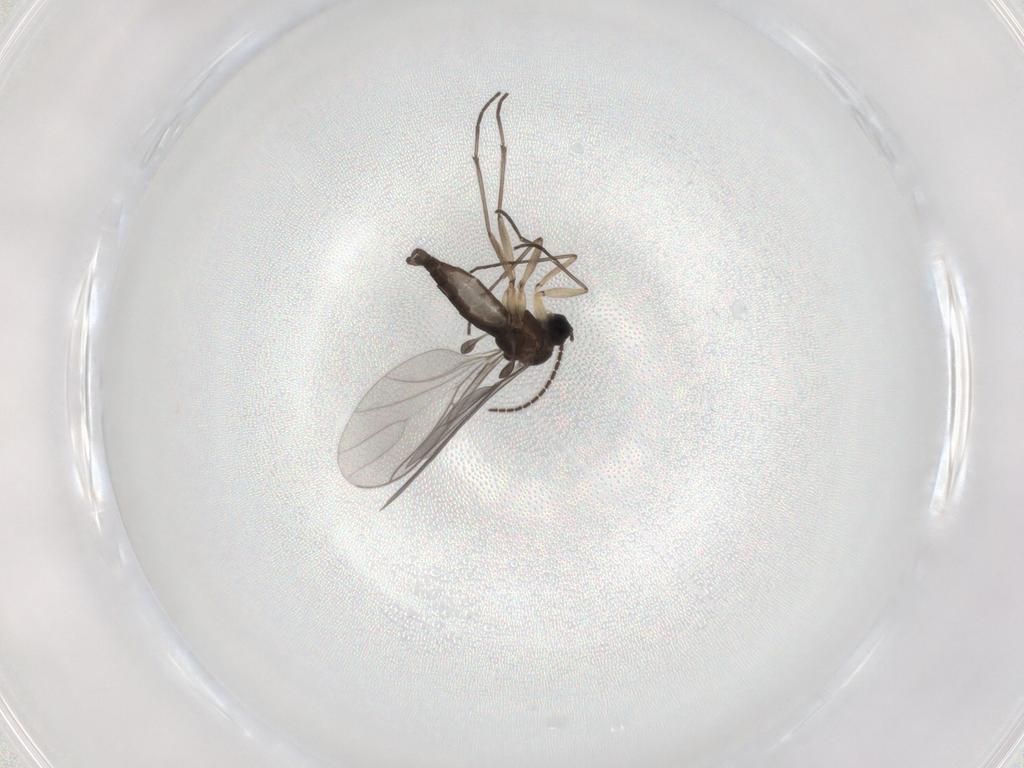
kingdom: Animalia
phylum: Arthropoda
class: Insecta
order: Diptera
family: Sciaridae
